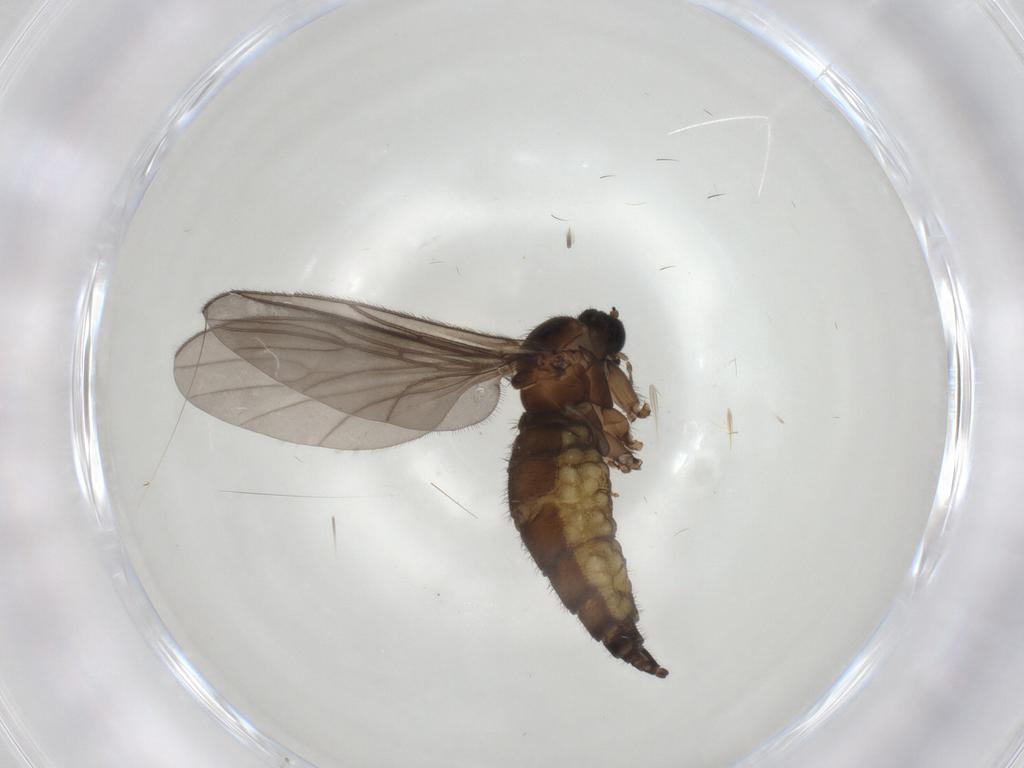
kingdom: Animalia
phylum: Arthropoda
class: Insecta
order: Diptera
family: Sciaridae
